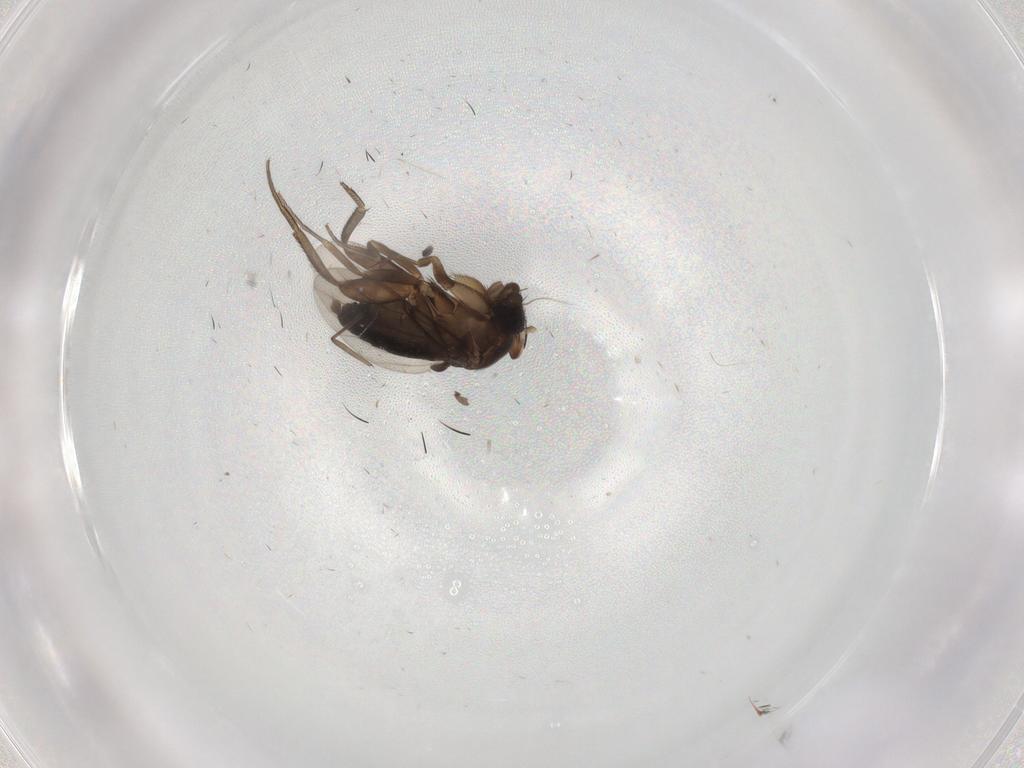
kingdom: Animalia
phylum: Arthropoda
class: Insecta
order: Diptera
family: Phoridae
